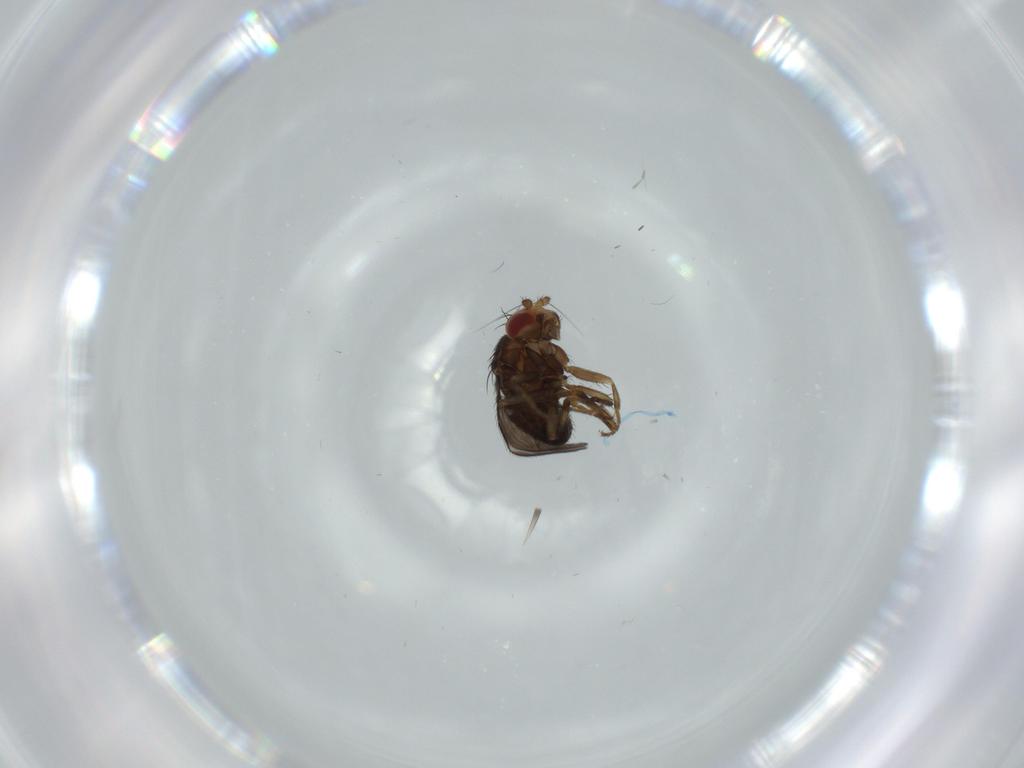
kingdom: Animalia
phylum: Arthropoda
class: Insecta
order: Diptera
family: Sphaeroceridae
